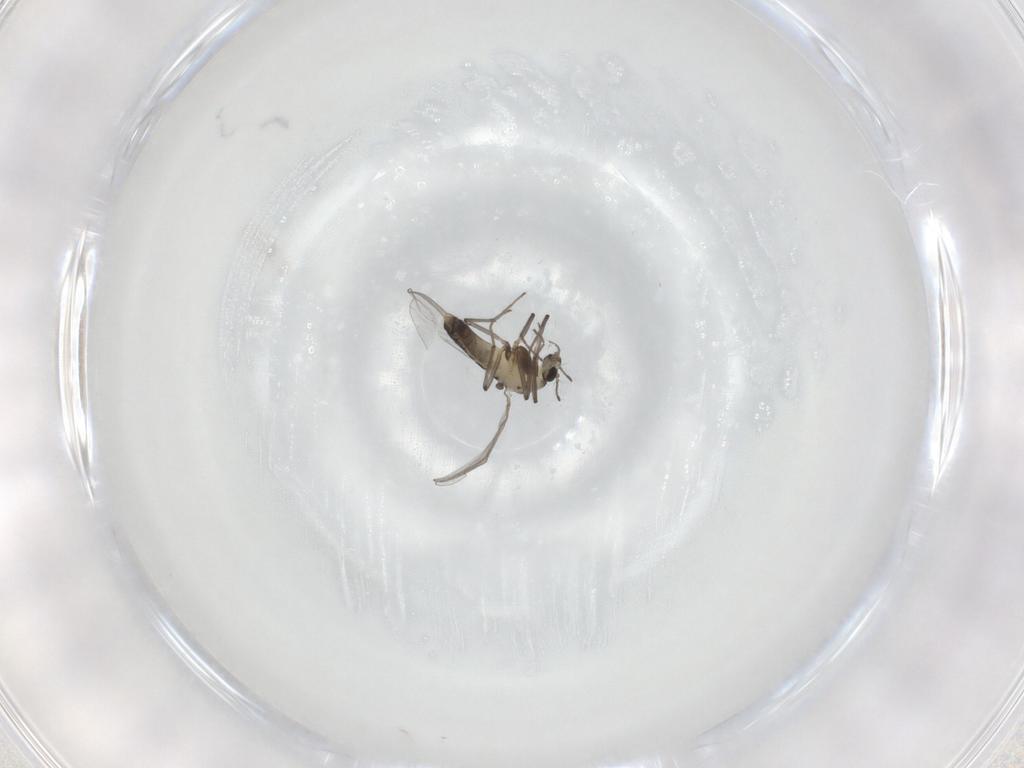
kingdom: Animalia
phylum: Arthropoda
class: Insecta
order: Diptera
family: Chironomidae
